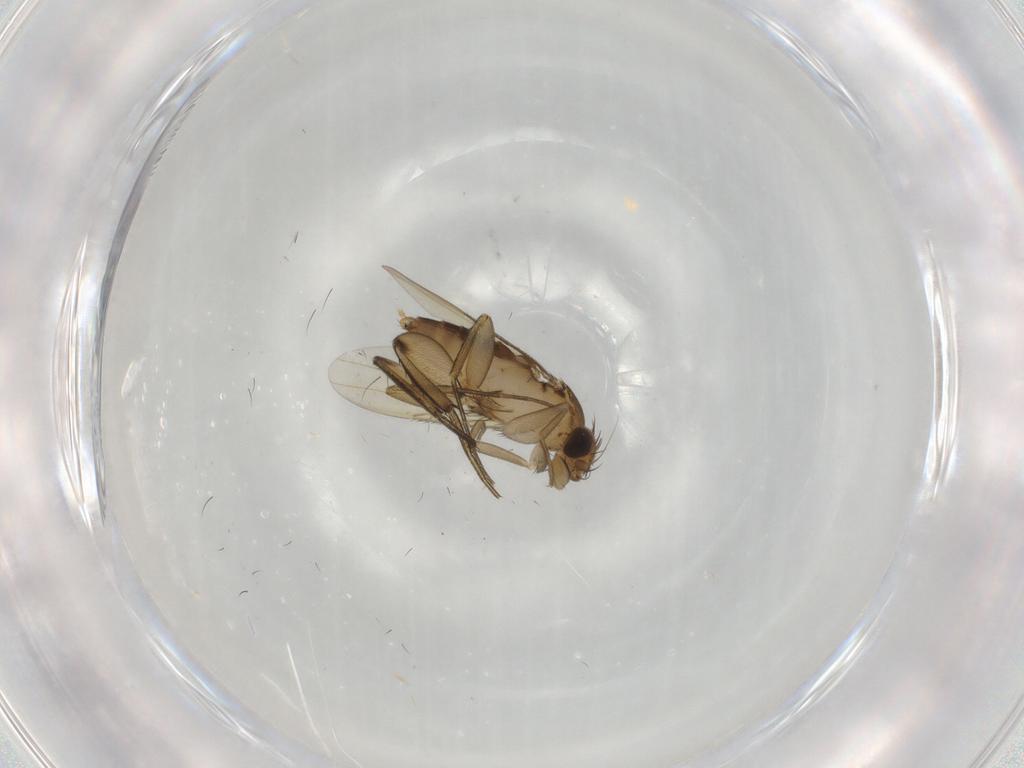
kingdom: Animalia
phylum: Arthropoda
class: Insecta
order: Diptera
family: Phoridae
